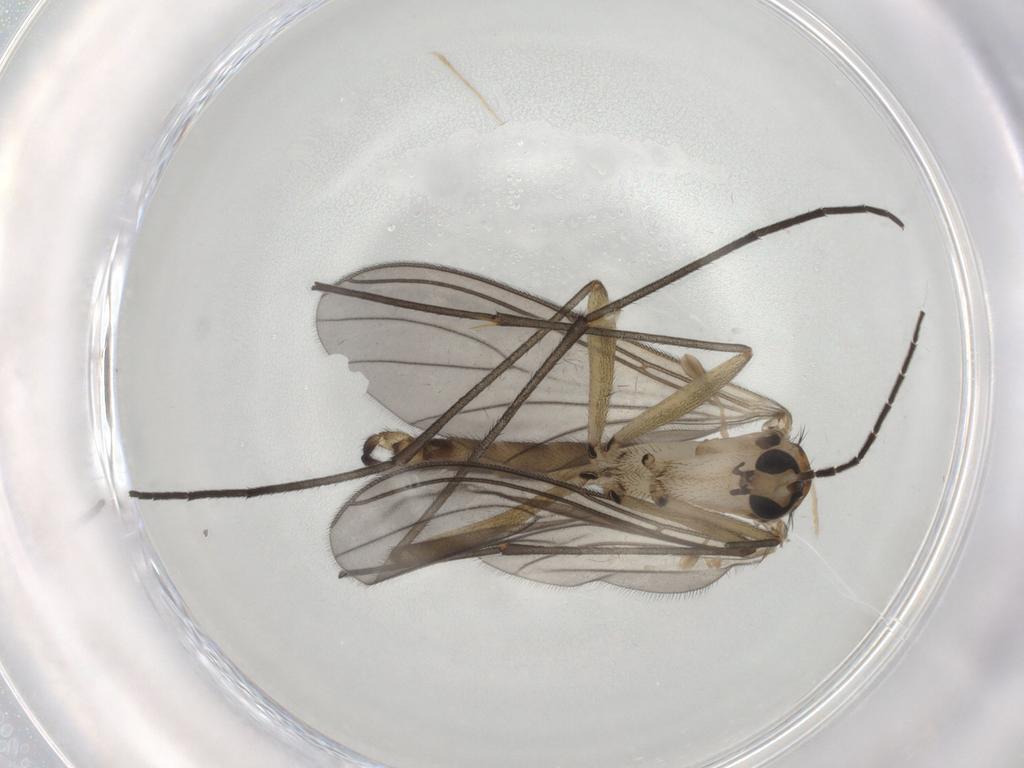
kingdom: Animalia
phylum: Arthropoda
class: Insecta
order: Diptera
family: Sciaridae
